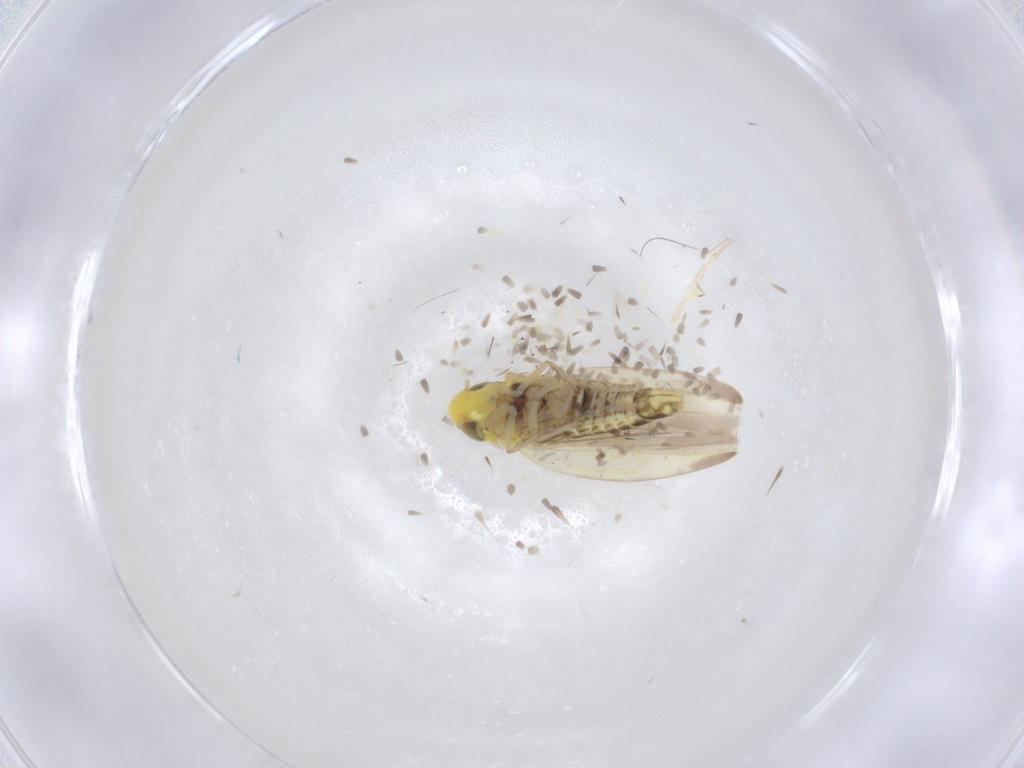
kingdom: Animalia
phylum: Arthropoda
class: Insecta
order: Hemiptera
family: Cicadellidae
